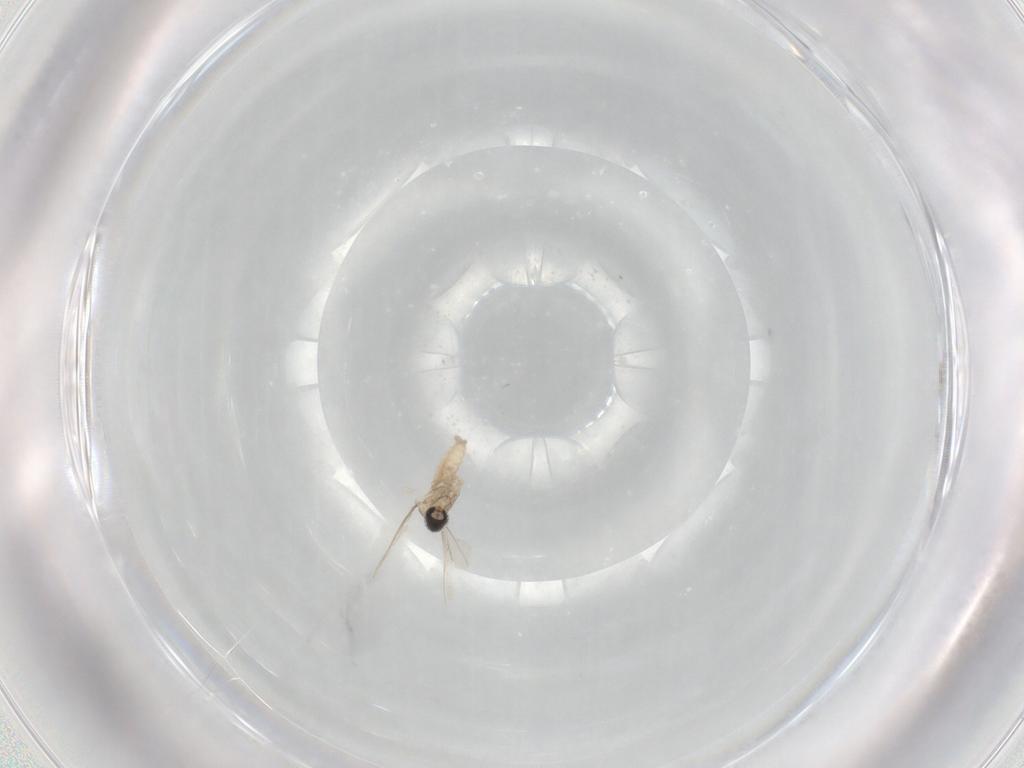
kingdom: Animalia
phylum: Arthropoda
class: Insecta
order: Diptera
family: Cecidomyiidae
